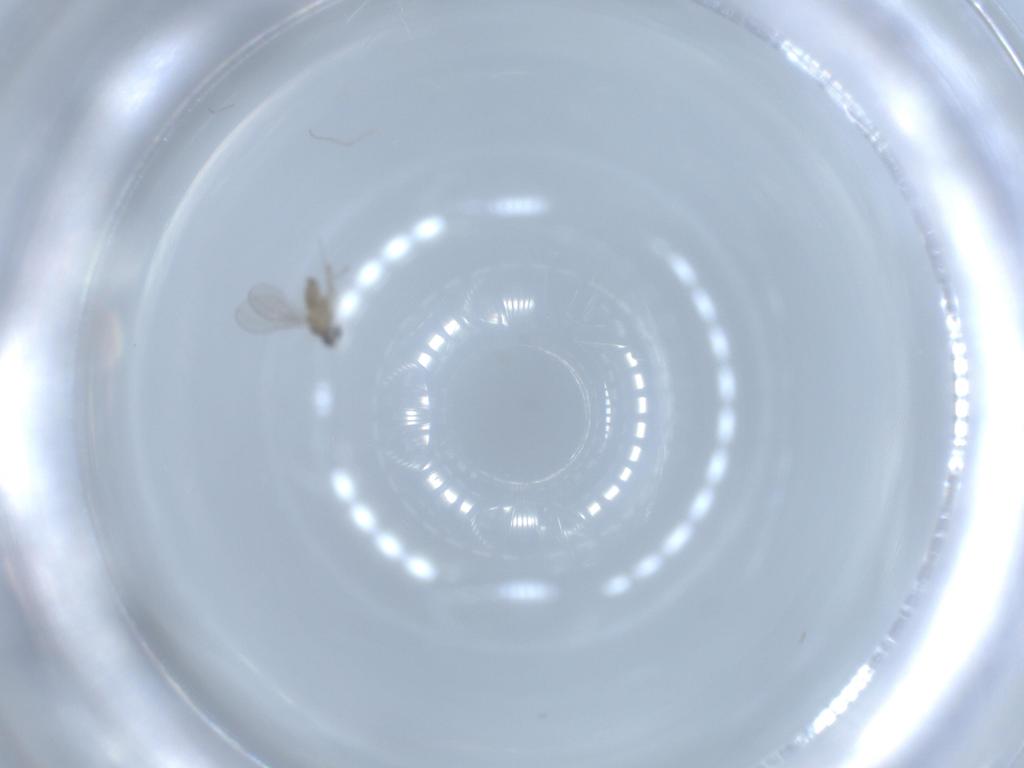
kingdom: Animalia
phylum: Arthropoda
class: Insecta
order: Diptera
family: Cecidomyiidae
